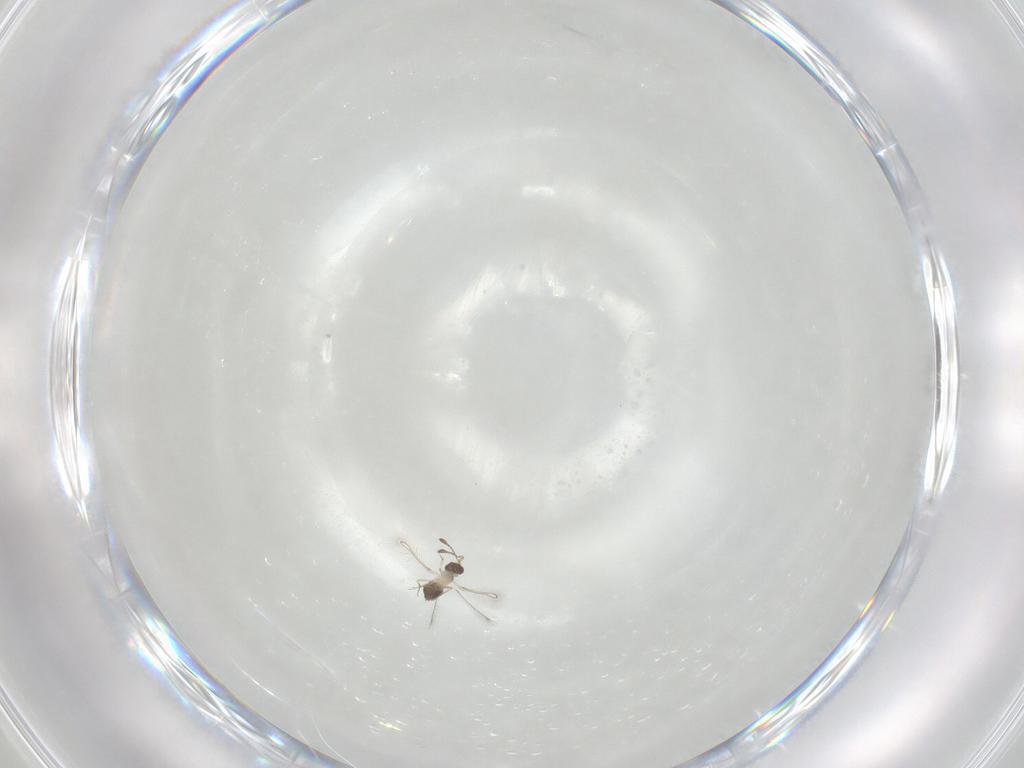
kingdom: Animalia
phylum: Arthropoda
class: Insecta
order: Hymenoptera
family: Mymaridae
